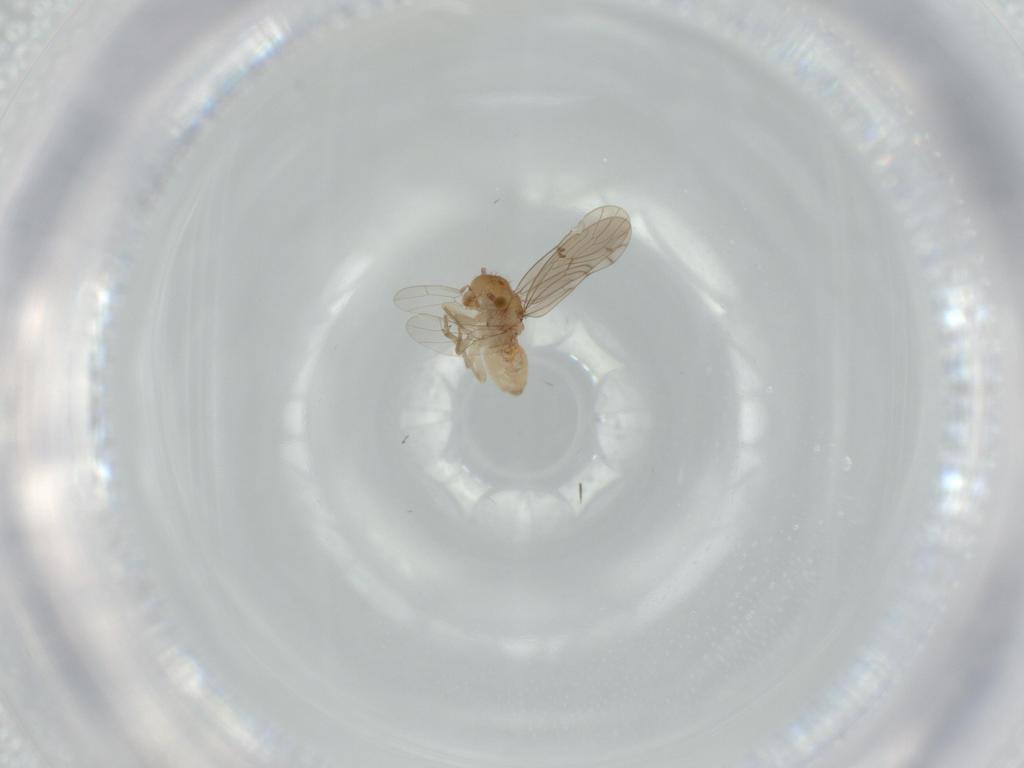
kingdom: Animalia
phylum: Arthropoda
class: Insecta
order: Psocodea
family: Ectopsocidae
